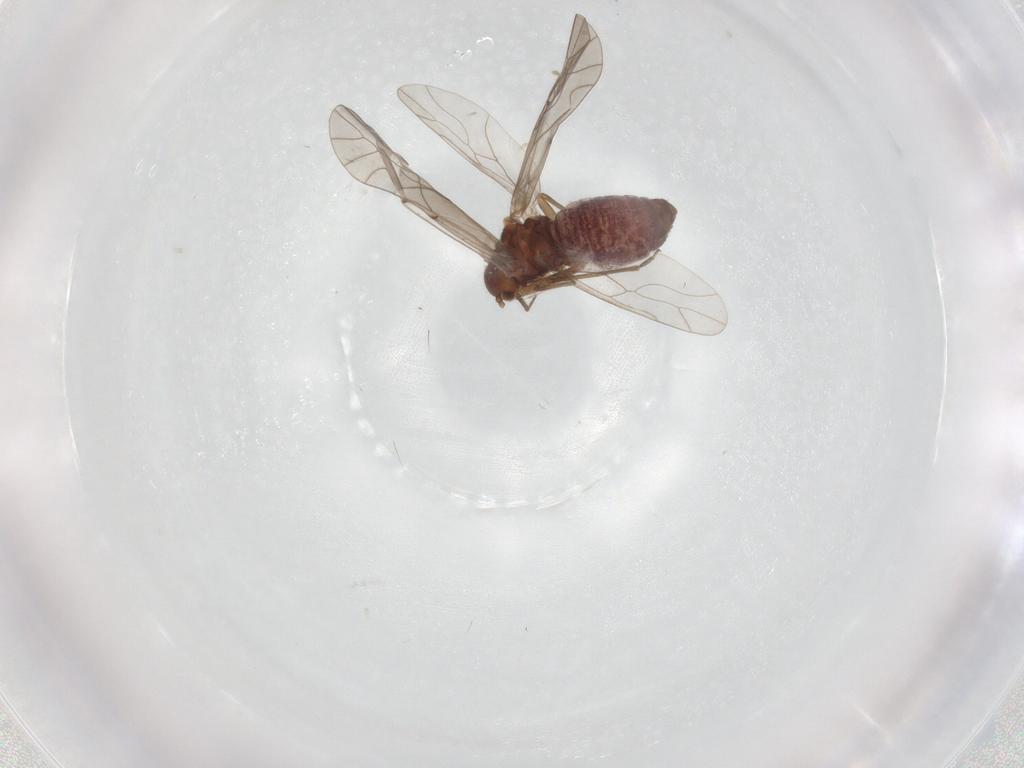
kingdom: Animalia
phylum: Arthropoda
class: Insecta
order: Psocodea
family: Lachesillidae
